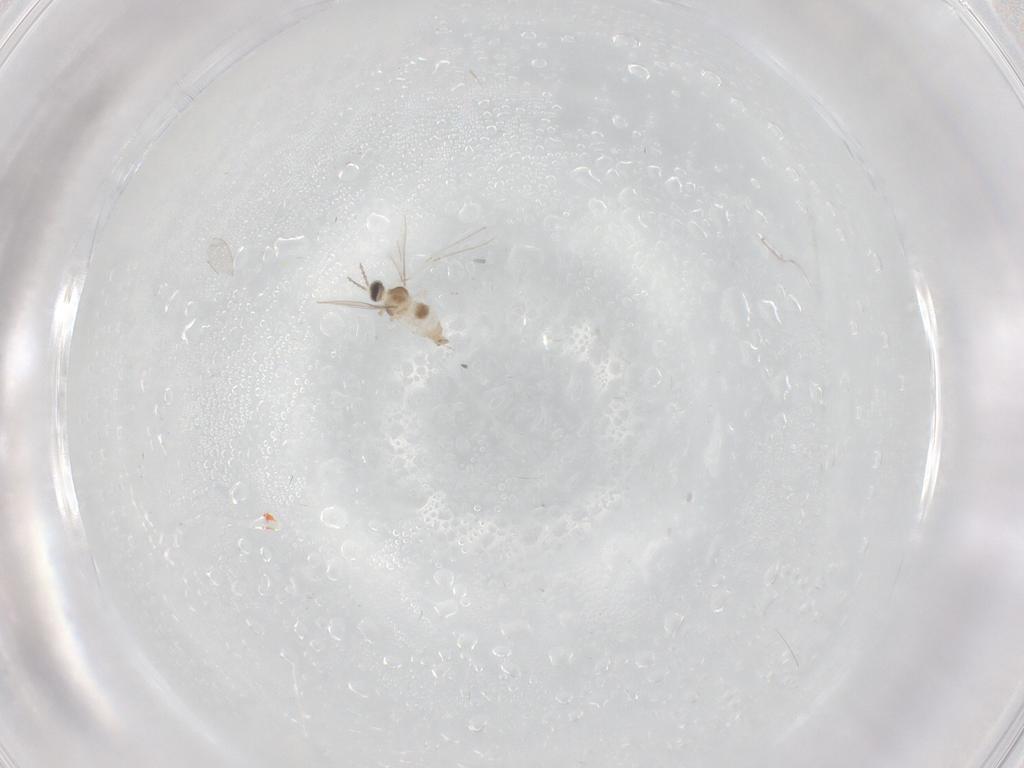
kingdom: Animalia
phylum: Arthropoda
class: Insecta
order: Diptera
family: Cecidomyiidae
